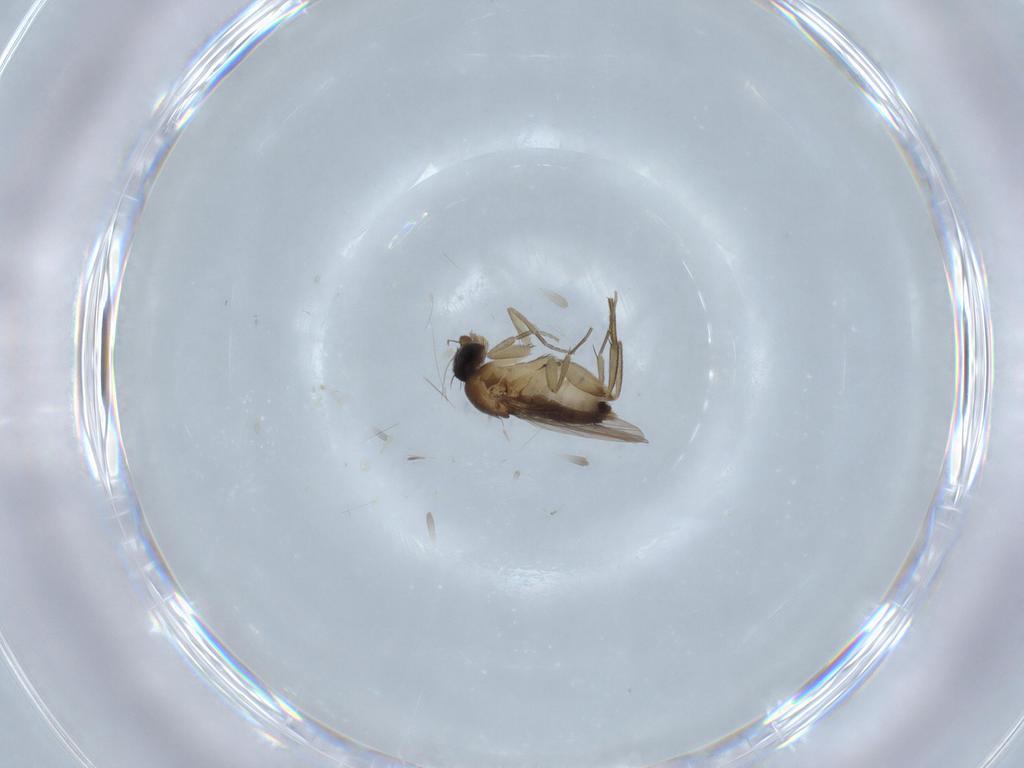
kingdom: Animalia
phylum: Arthropoda
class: Insecta
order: Diptera
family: Phoridae
